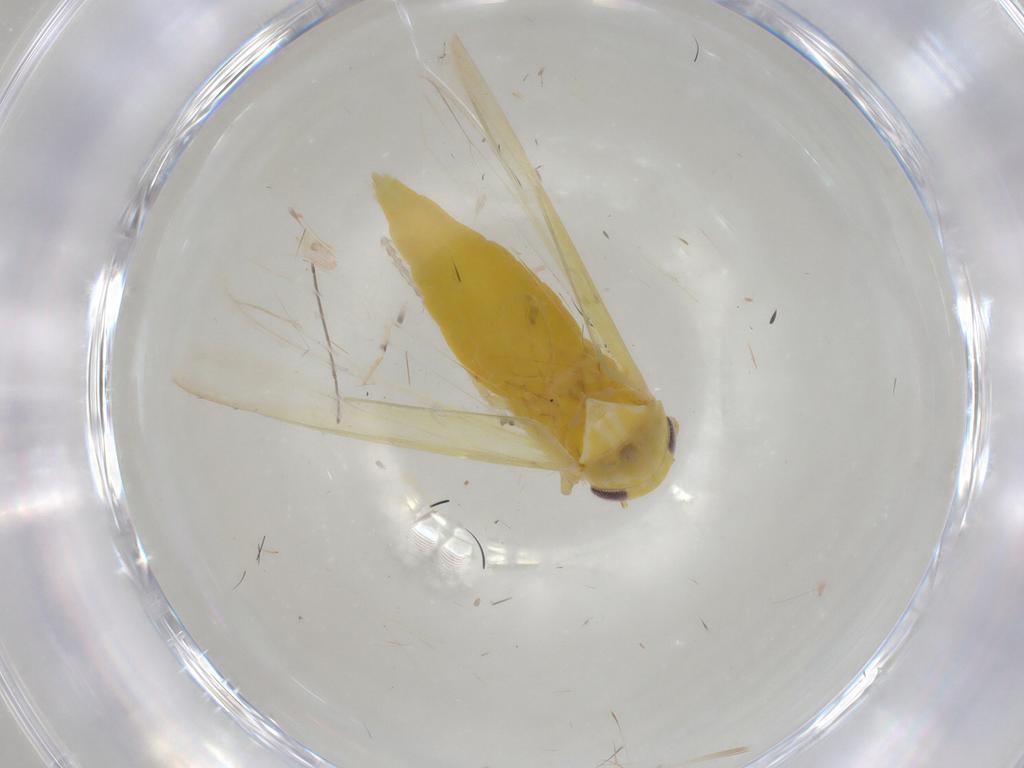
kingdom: Animalia
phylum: Arthropoda
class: Insecta
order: Hemiptera
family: Cicadellidae
